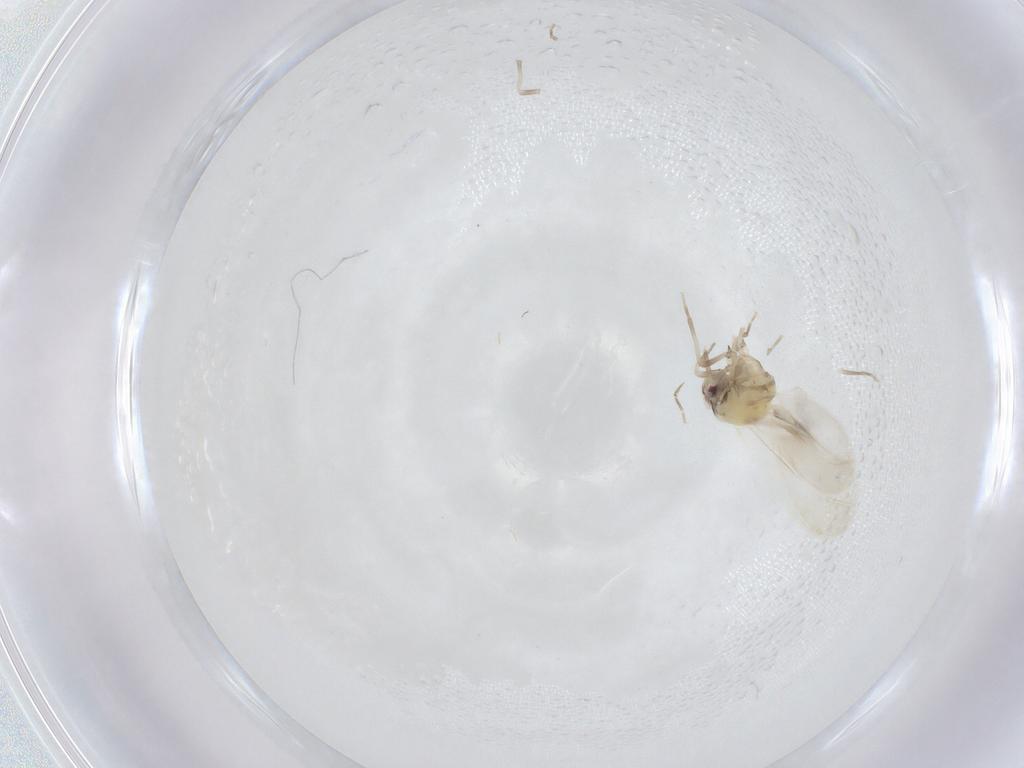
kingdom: Animalia
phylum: Arthropoda
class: Insecta
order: Hemiptera
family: Aleyrodidae
